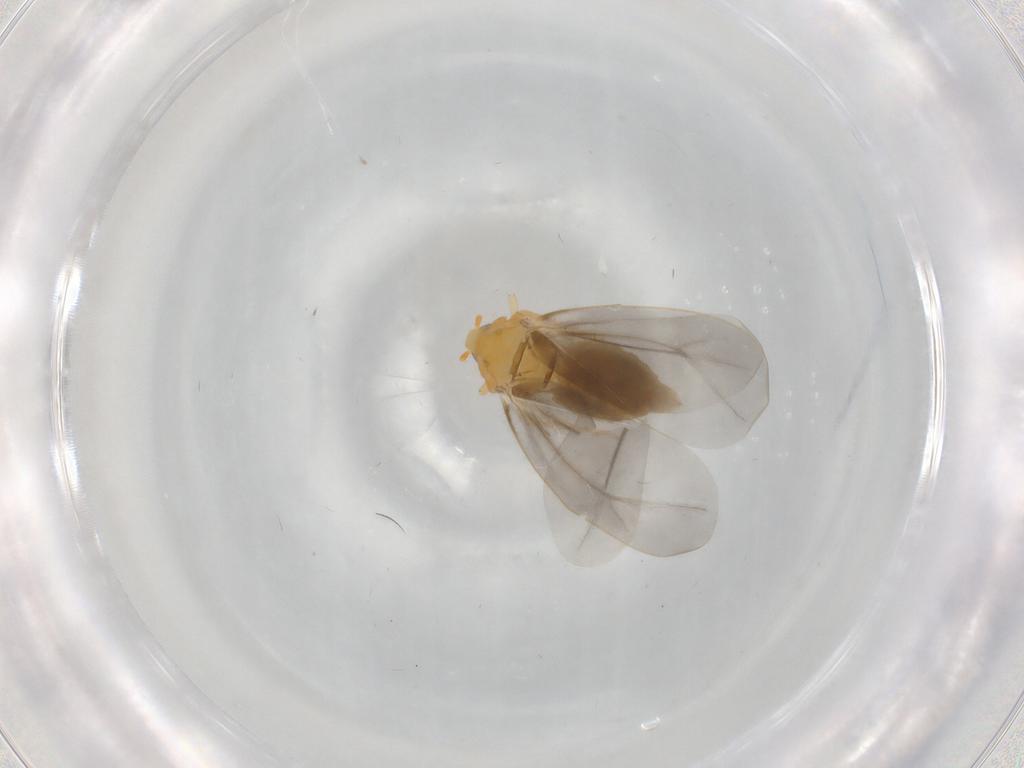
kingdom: Animalia
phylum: Arthropoda
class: Insecta
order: Hemiptera
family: Aleyrodidae
